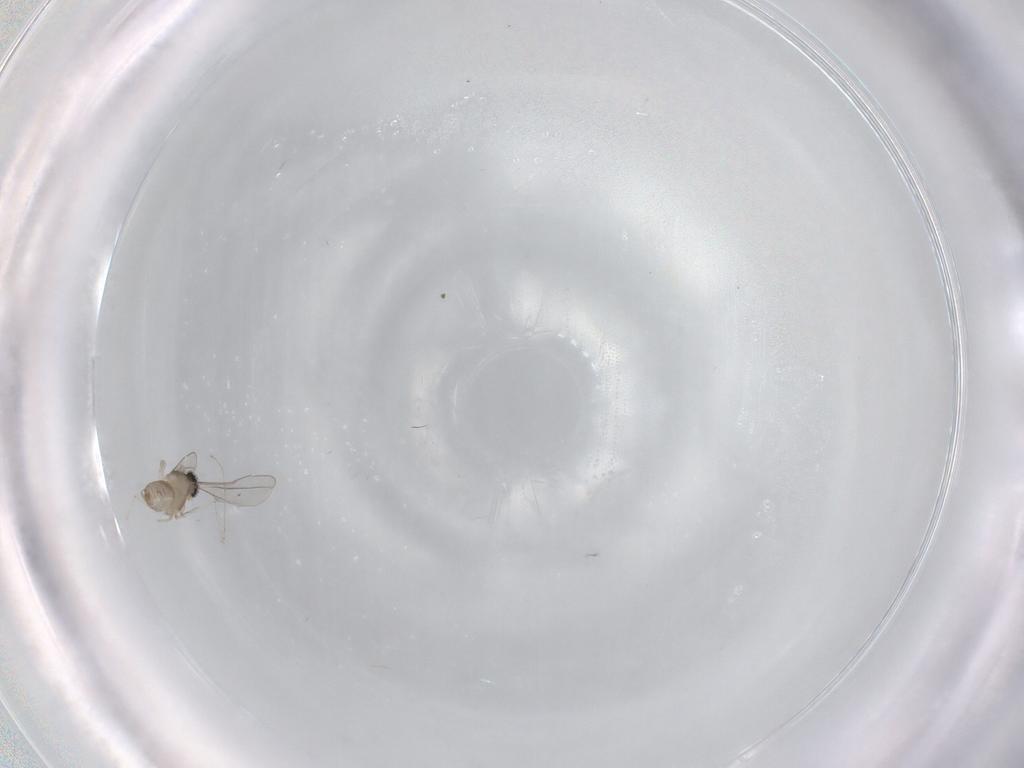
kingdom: Animalia
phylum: Arthropoda
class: Insecta
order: Diptera
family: Cecidomyiidae
